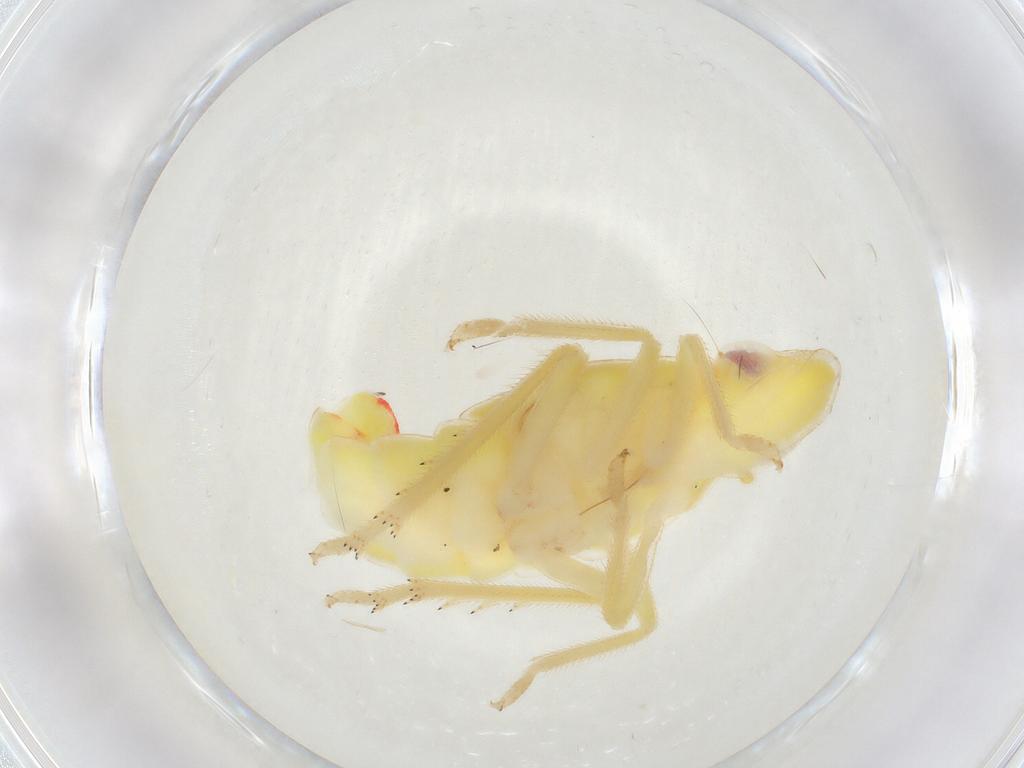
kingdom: Animalia
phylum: Arthropoda
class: Insecta
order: Hemiptera
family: Tropiduchidae
